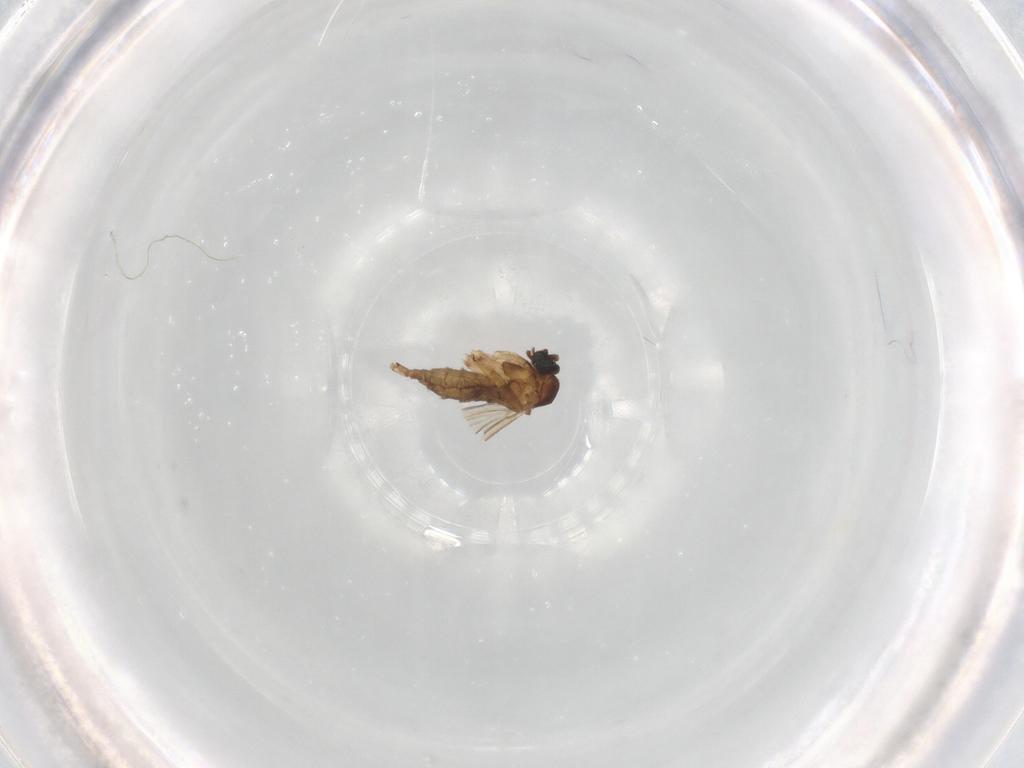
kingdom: Animalia
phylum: Arthropoda
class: Insecta
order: Diptera
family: Sciaridae
